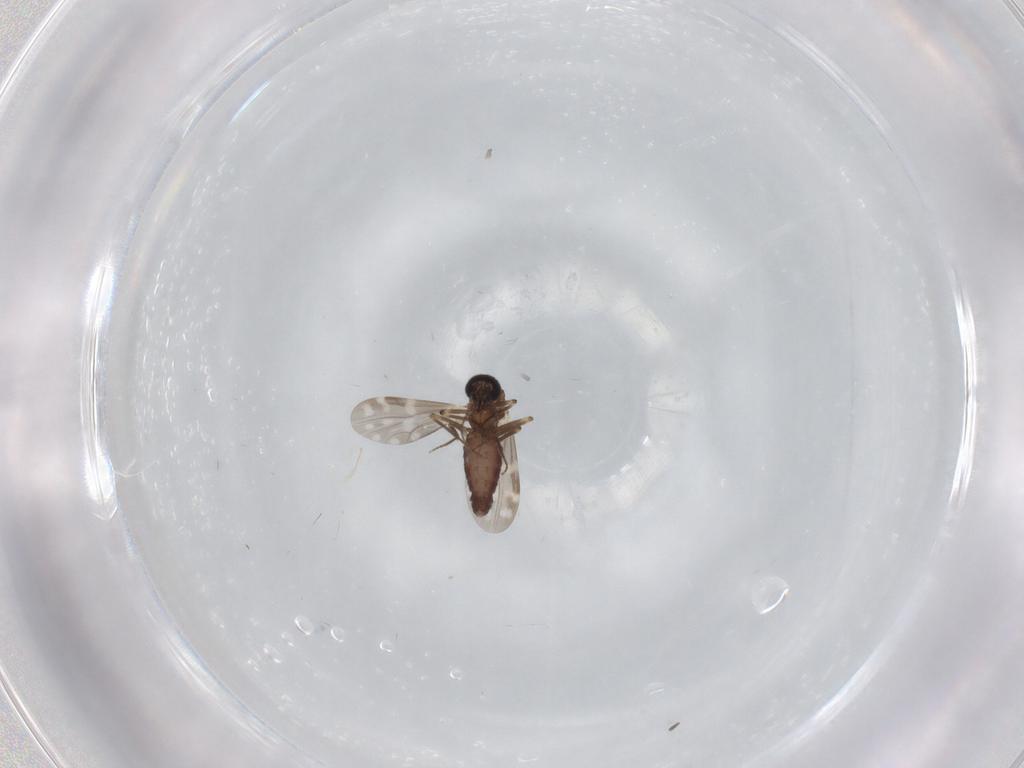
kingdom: Animalia
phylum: Arthropoda
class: Insecta
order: Diptera
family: Ceratopogonidae
